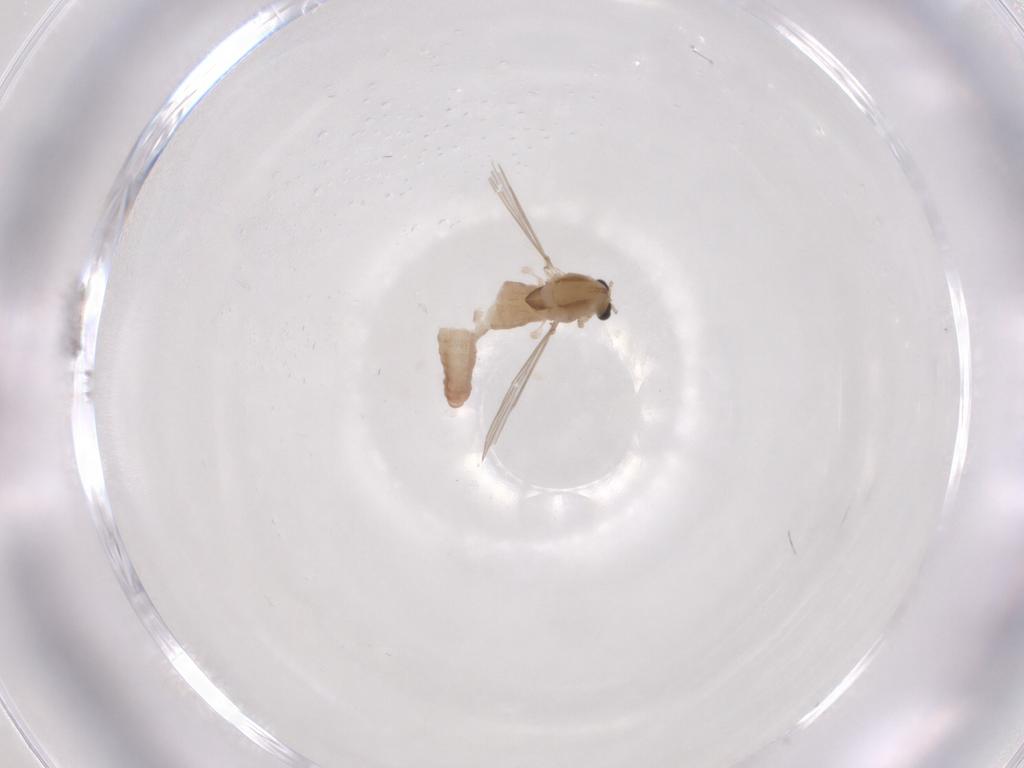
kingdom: Animalia
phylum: Arthropoda
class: Insecta
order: Diptera
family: Chironomidae
